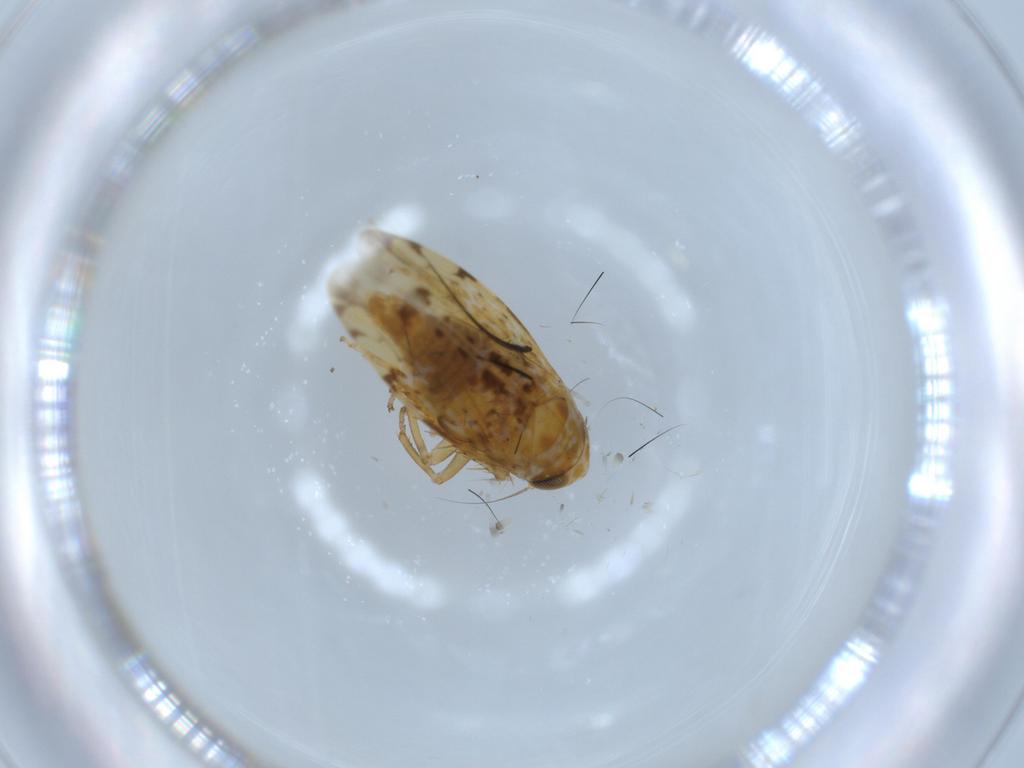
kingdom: Animalia
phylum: Arthropoda
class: Insecta
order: Hemiptera
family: Cicadellidae
